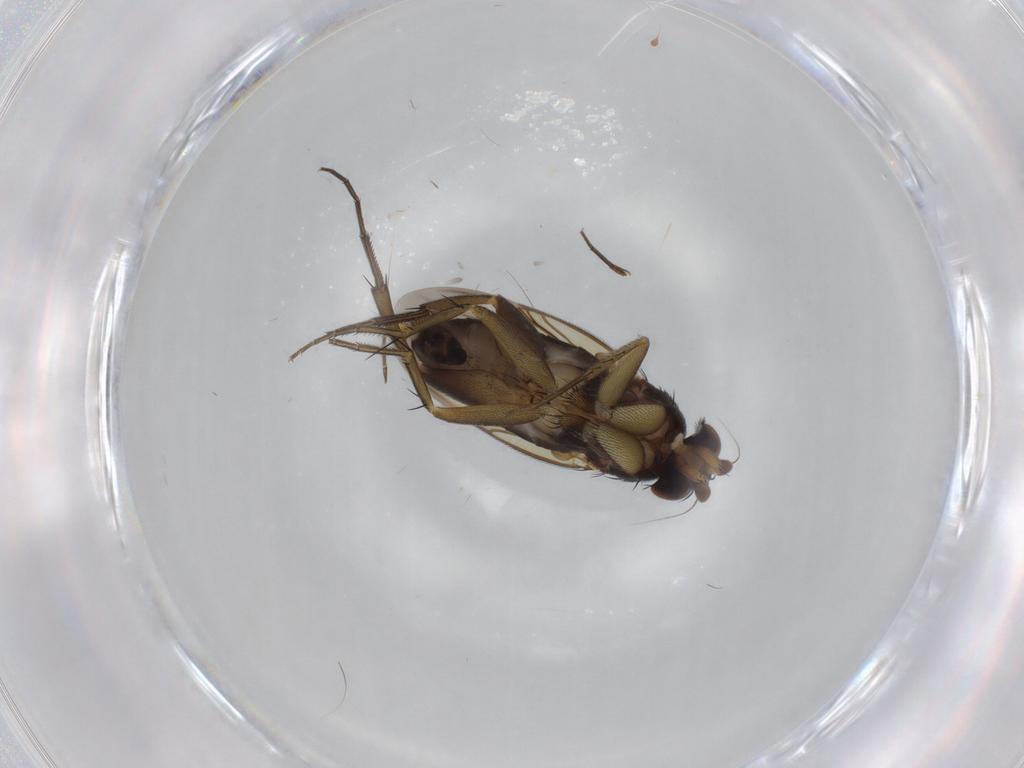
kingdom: Animalia
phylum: Arthropoda
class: Insecta
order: Diptera
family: Phoridae
